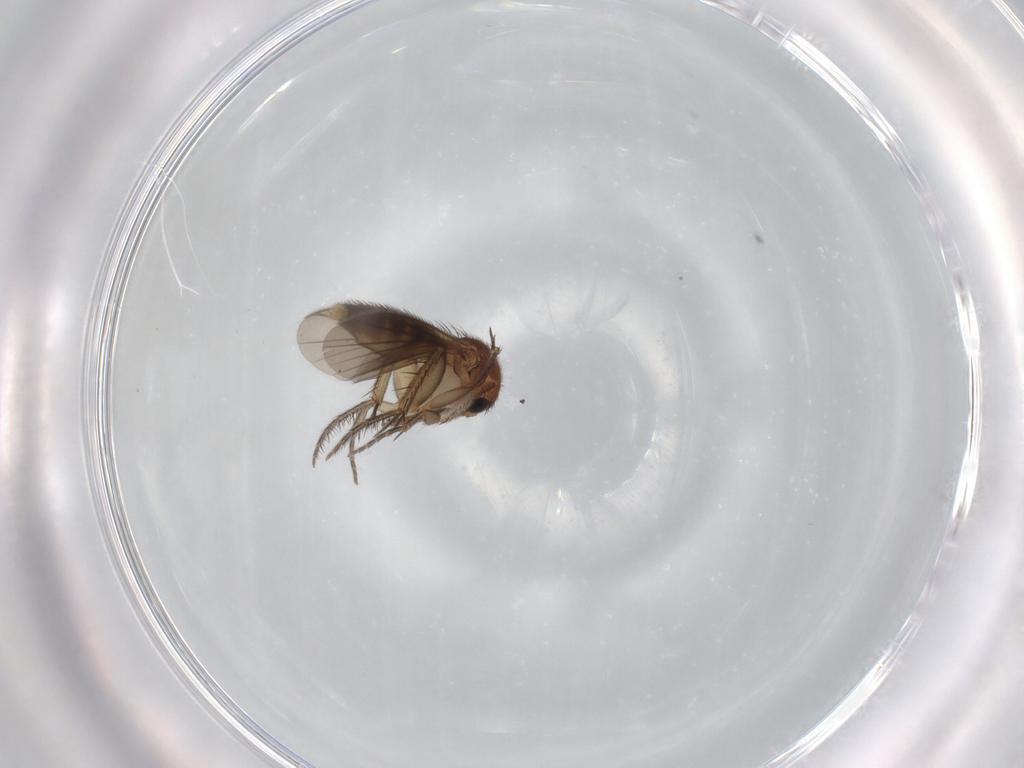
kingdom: Animalia
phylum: Arthropoda
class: Insecta
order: Diptera
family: Mycetophilidae
